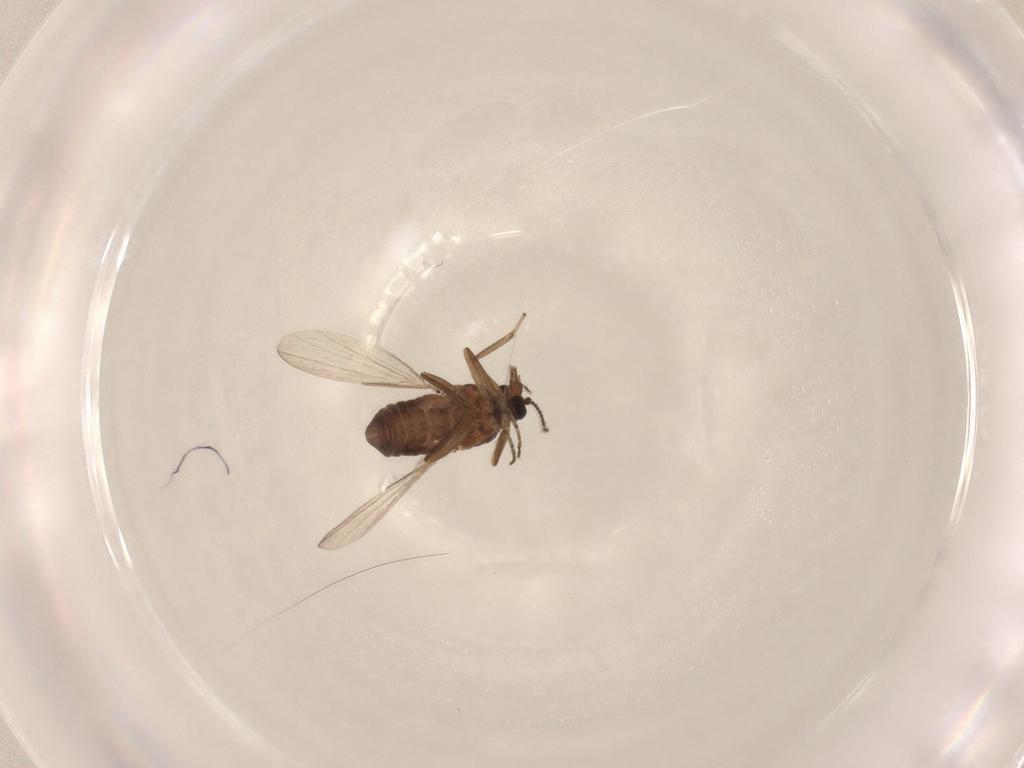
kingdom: Animalia
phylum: Arthropoda
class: Insecta
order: Diptera
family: Ceratopogonidae
